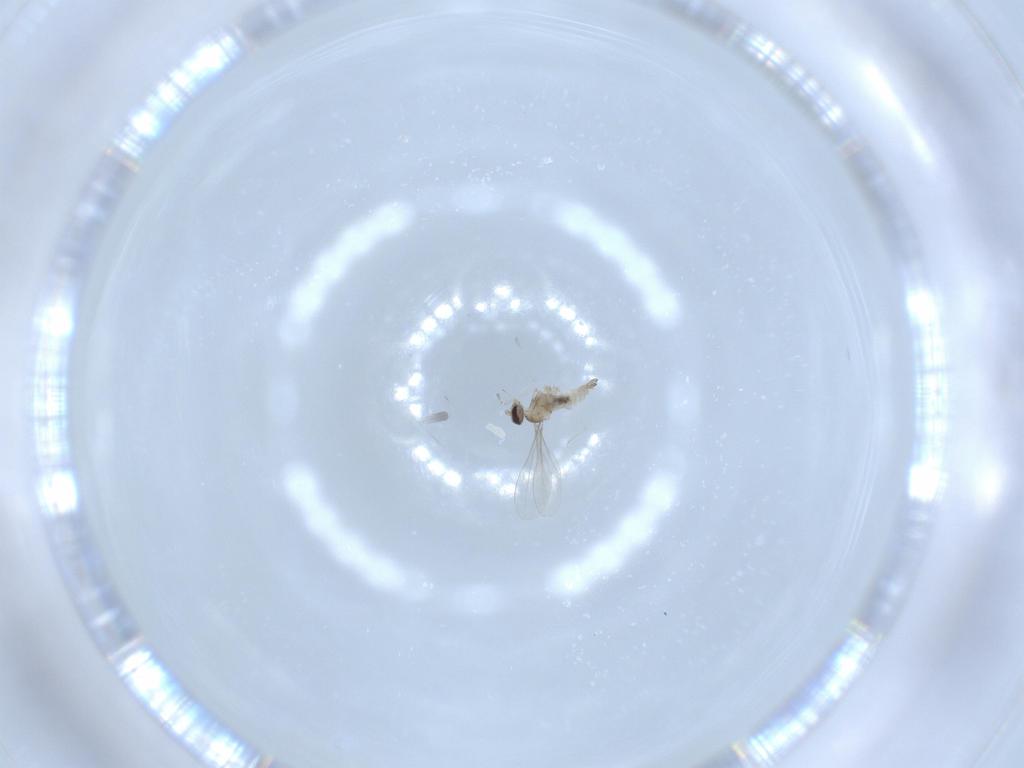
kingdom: Animalia
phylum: Arthropoda
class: Insecta
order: Diptera
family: Cecidomyiidae
